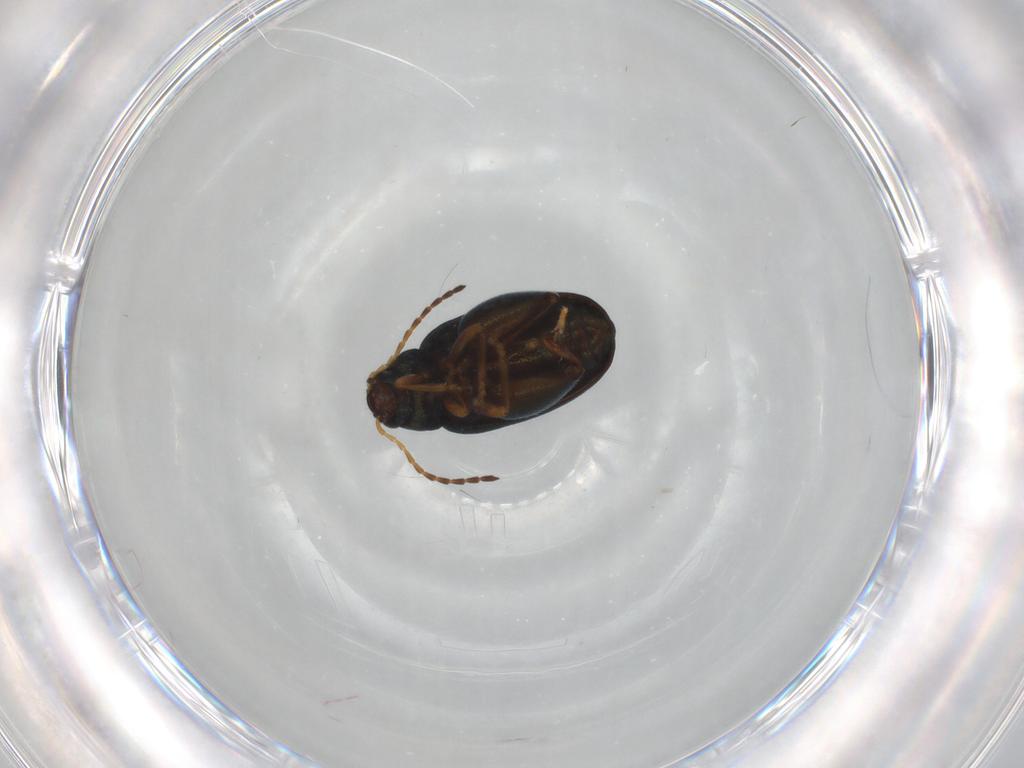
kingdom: Animalia
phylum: Arthropoda
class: Insecta
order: Coleoptera
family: Chrysomelidae
